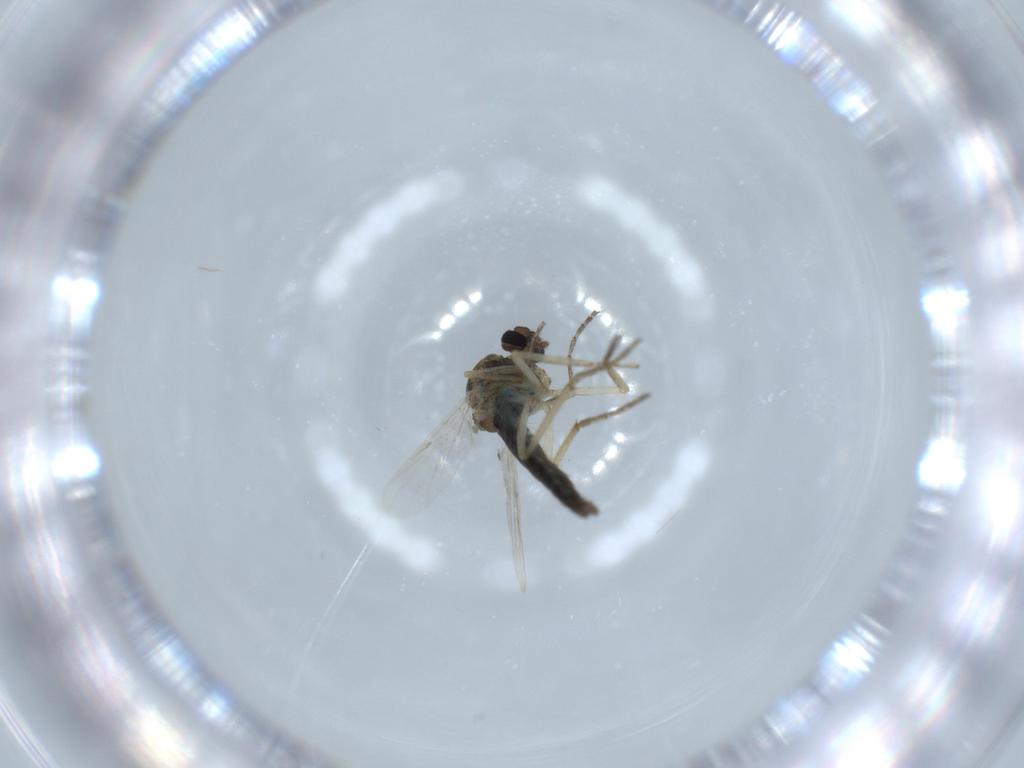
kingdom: Animalia
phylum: Arthropoda
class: Insecta
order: Diptera
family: Ceratopogonidae
